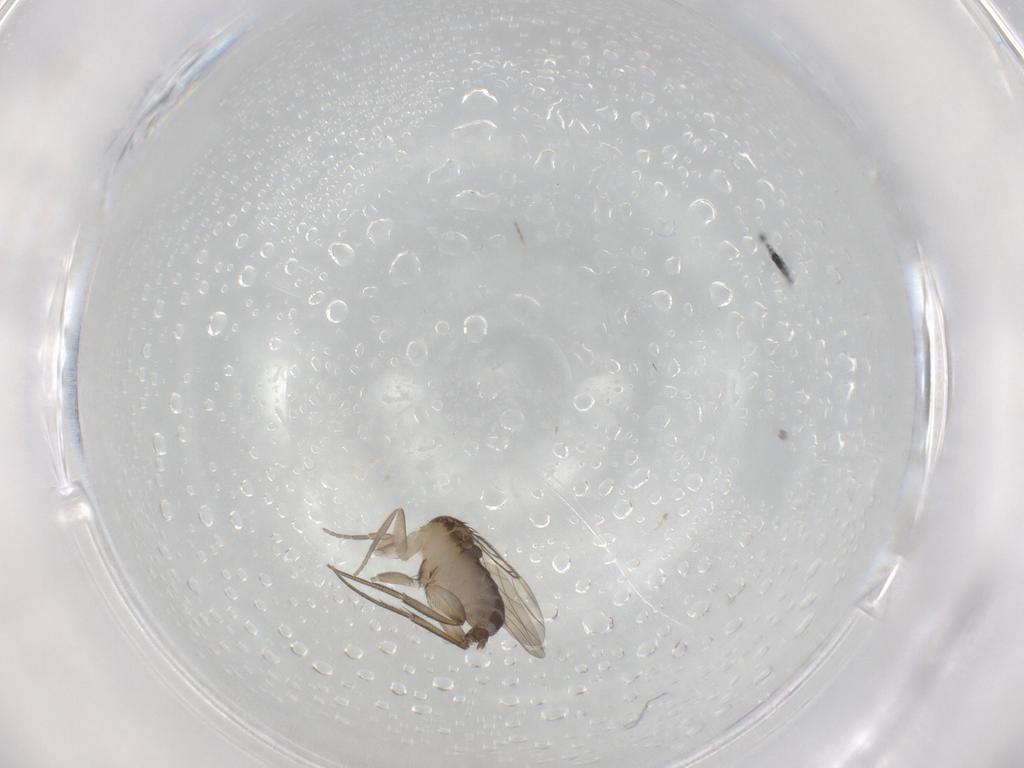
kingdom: Animalia
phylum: Arthropoda
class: Insecta
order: Diptera
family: Phoridae
